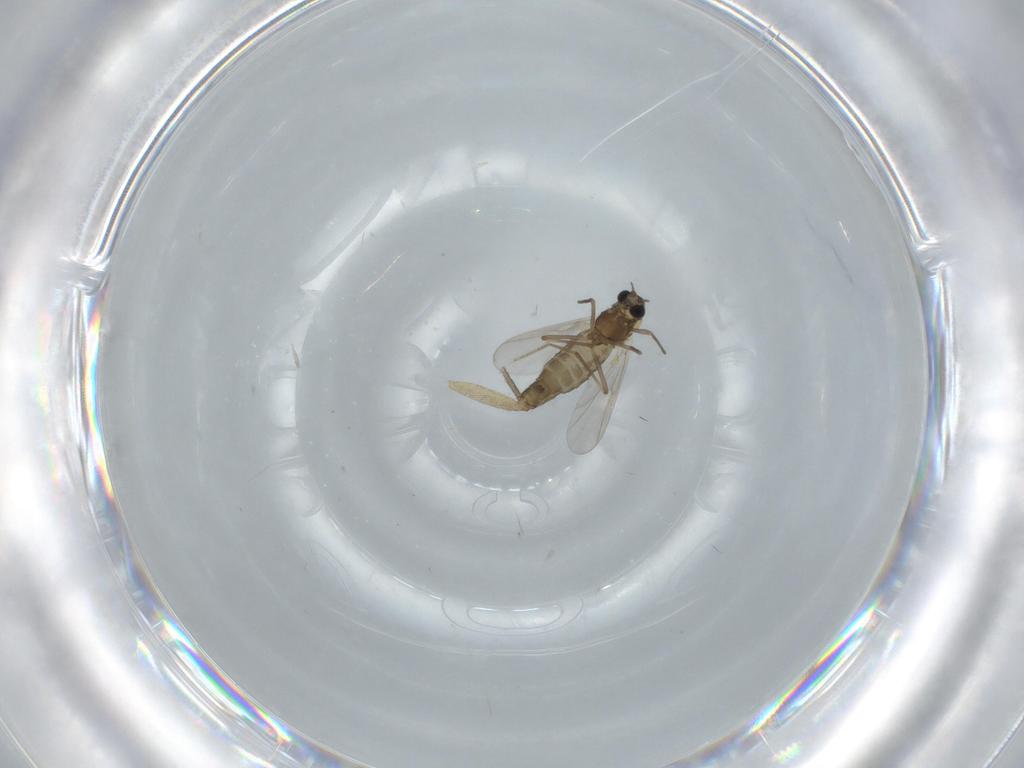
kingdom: Animalia
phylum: Arthropoda
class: Insecta
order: Diptera
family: Chironomidae
